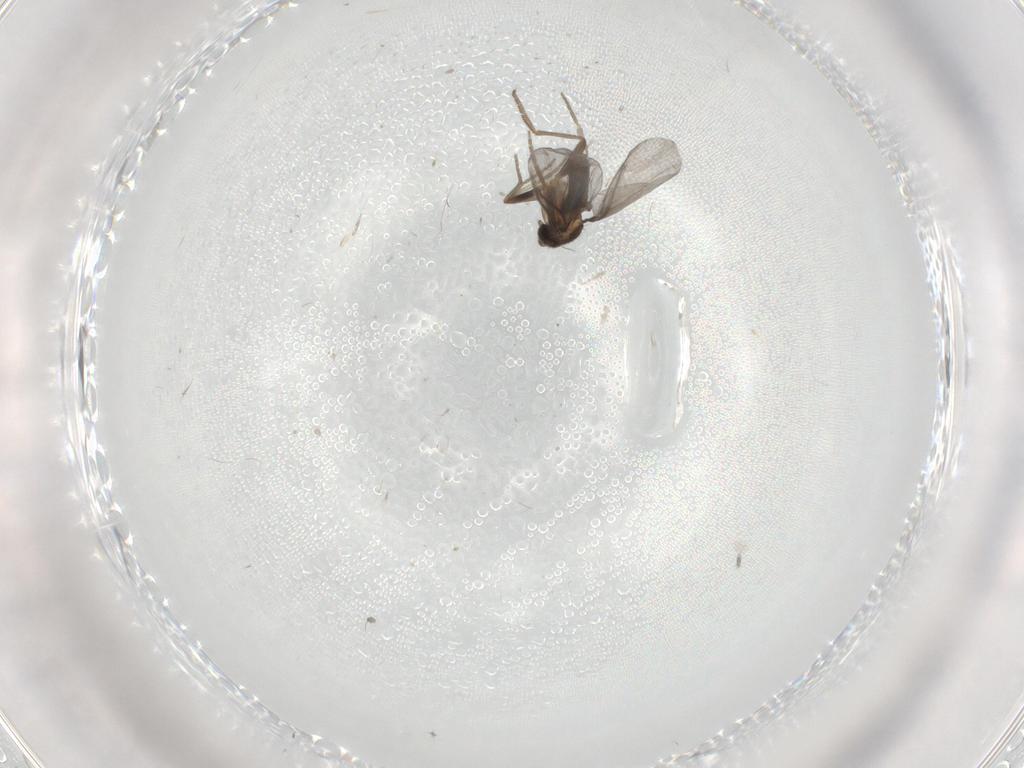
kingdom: Animalia
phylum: Arthropoda
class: Insecta
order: Diptera
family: Phoridae
